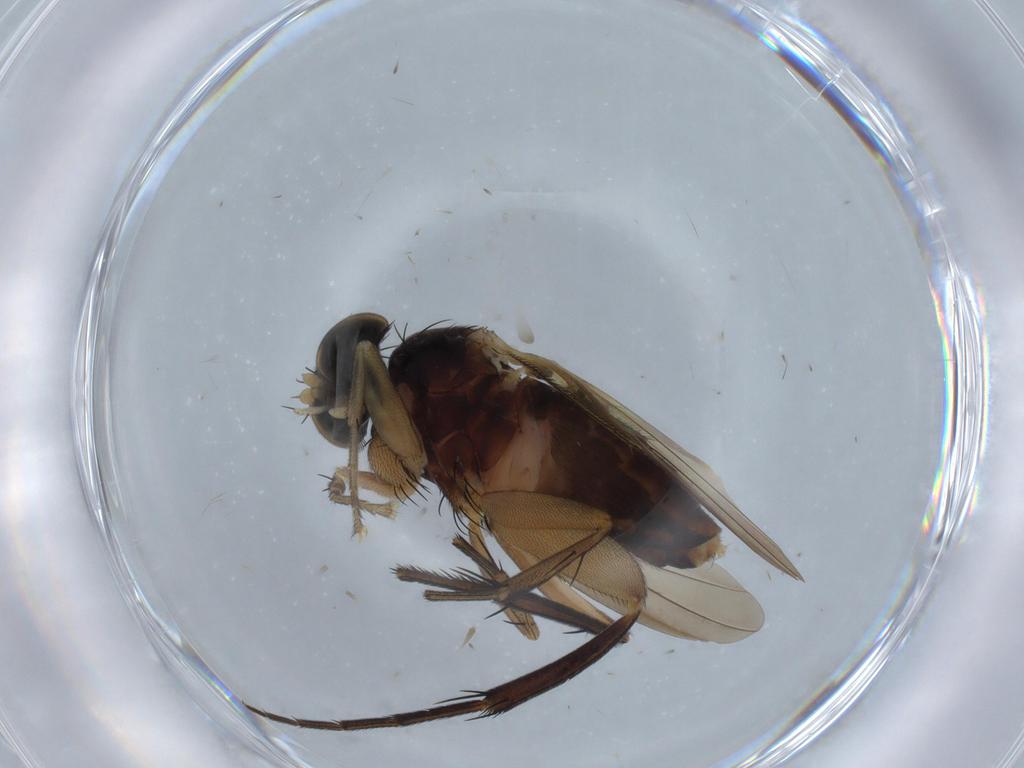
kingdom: Animalia
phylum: Arthropoda
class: Insecta
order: Diptera
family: Phoridae
